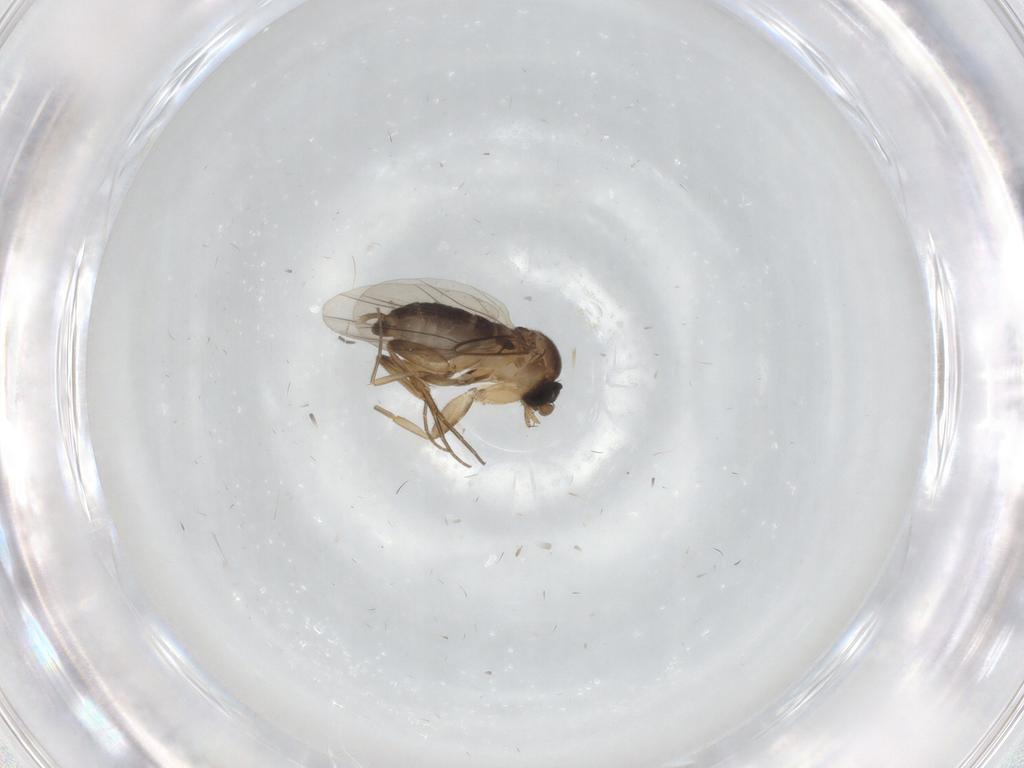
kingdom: Animalia
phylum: Arthropoda
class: Insecta
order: Diptera
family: Phoridae
